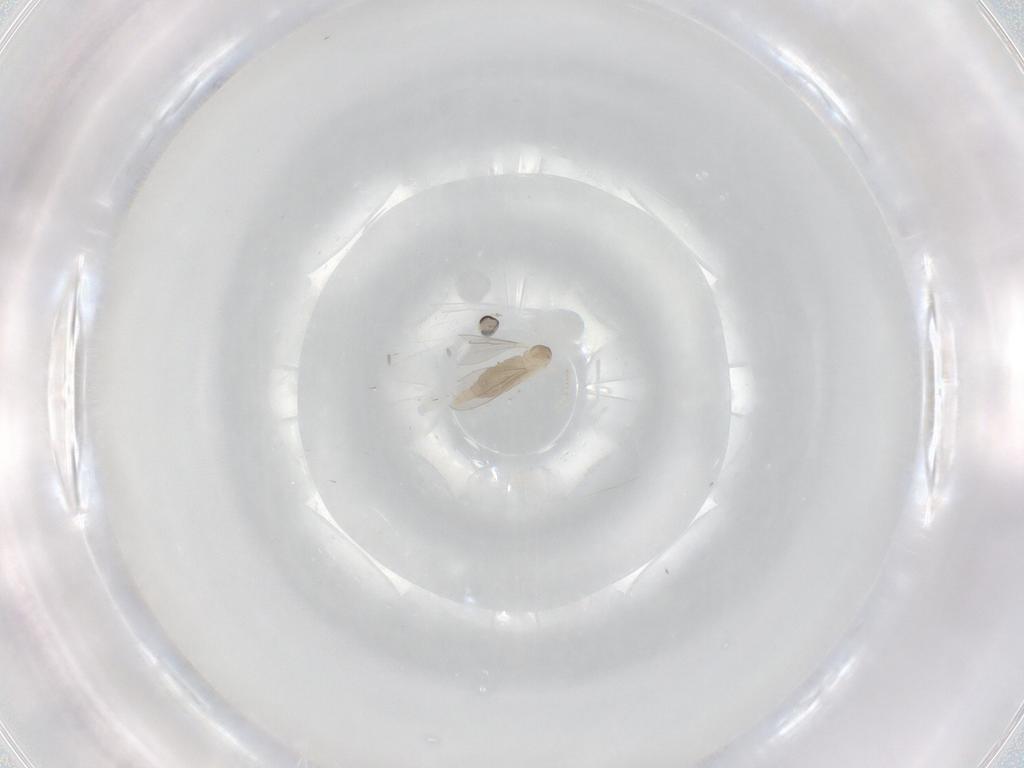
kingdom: Animalia
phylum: Arthropoda
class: Insecta
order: Diptera
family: Cecidomyiidae
